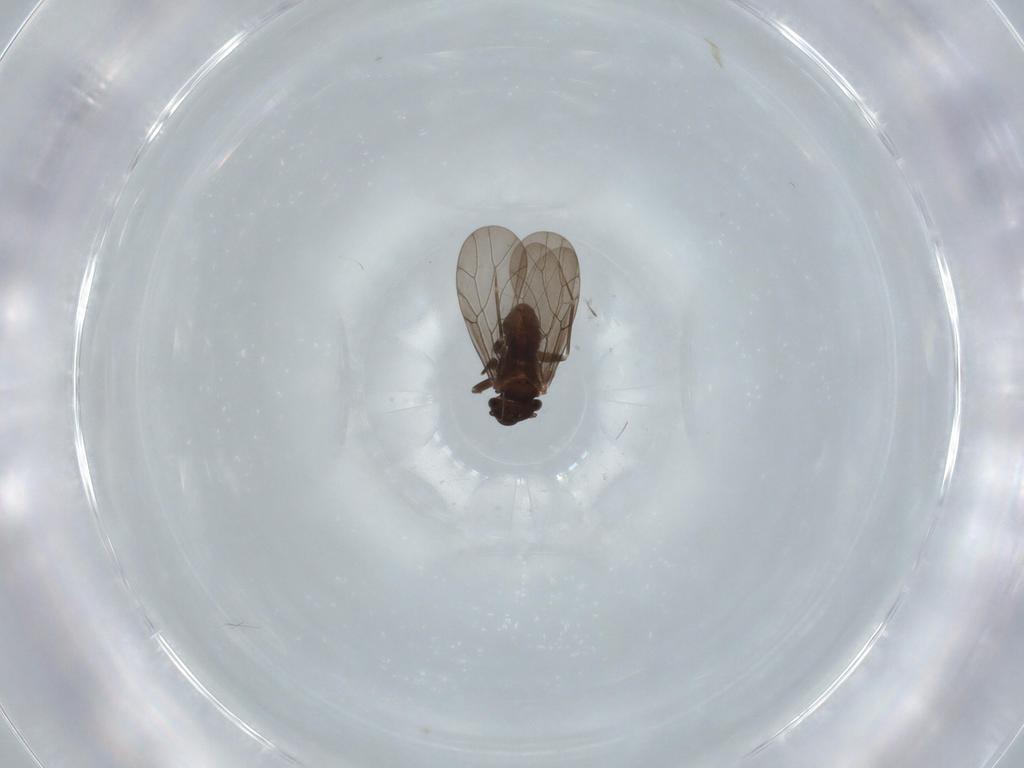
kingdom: Animalia
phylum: Arthropoda
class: Insecta
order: Psocodea
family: Lepidopsocidae
